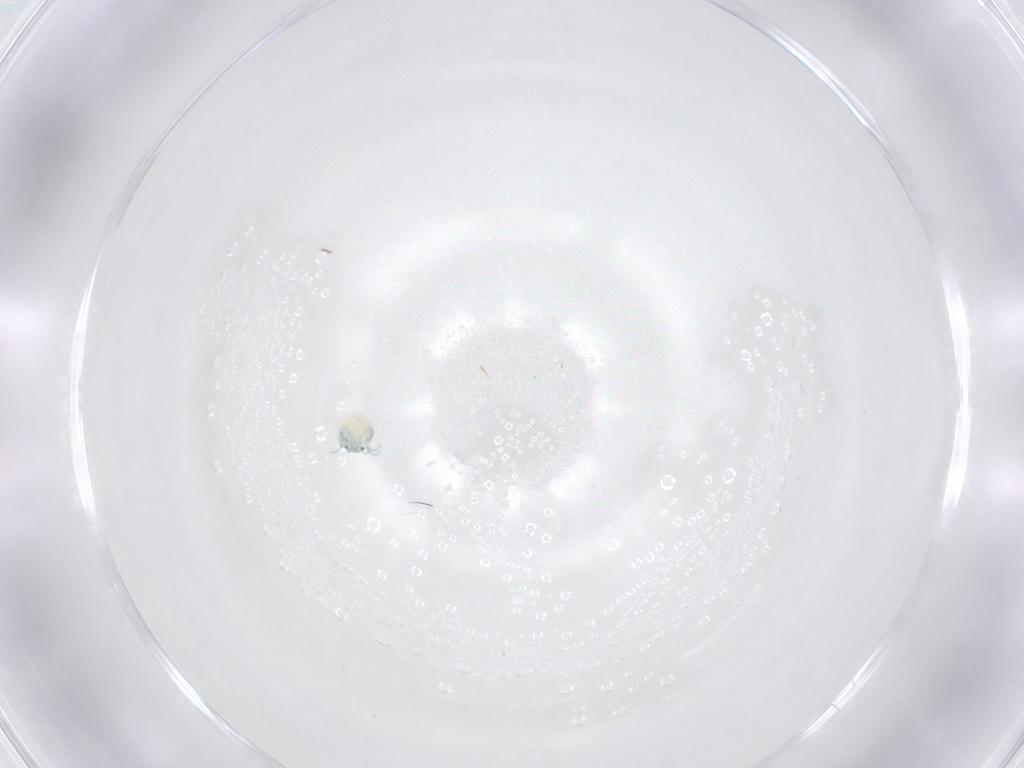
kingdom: Animalia
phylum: Arthropoda
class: Arachnida
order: Trombidiformes
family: Arrenuridae
